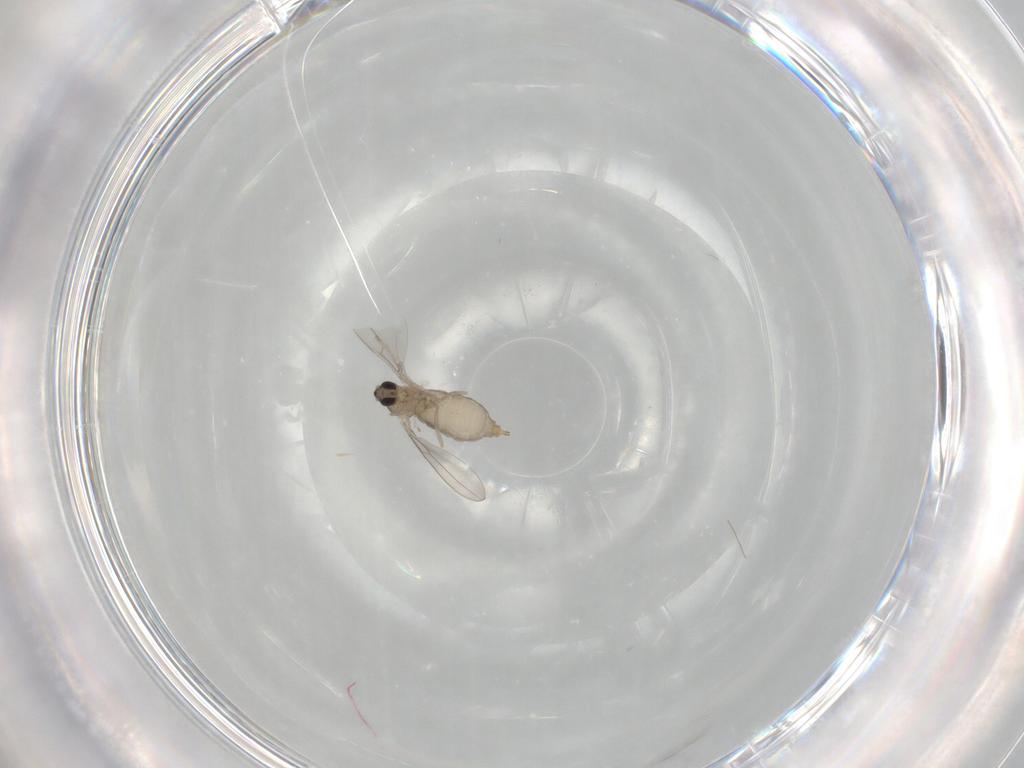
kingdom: Animalia
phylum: Arthropoda
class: Insecta
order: Diptera
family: Cecidomyiidae
